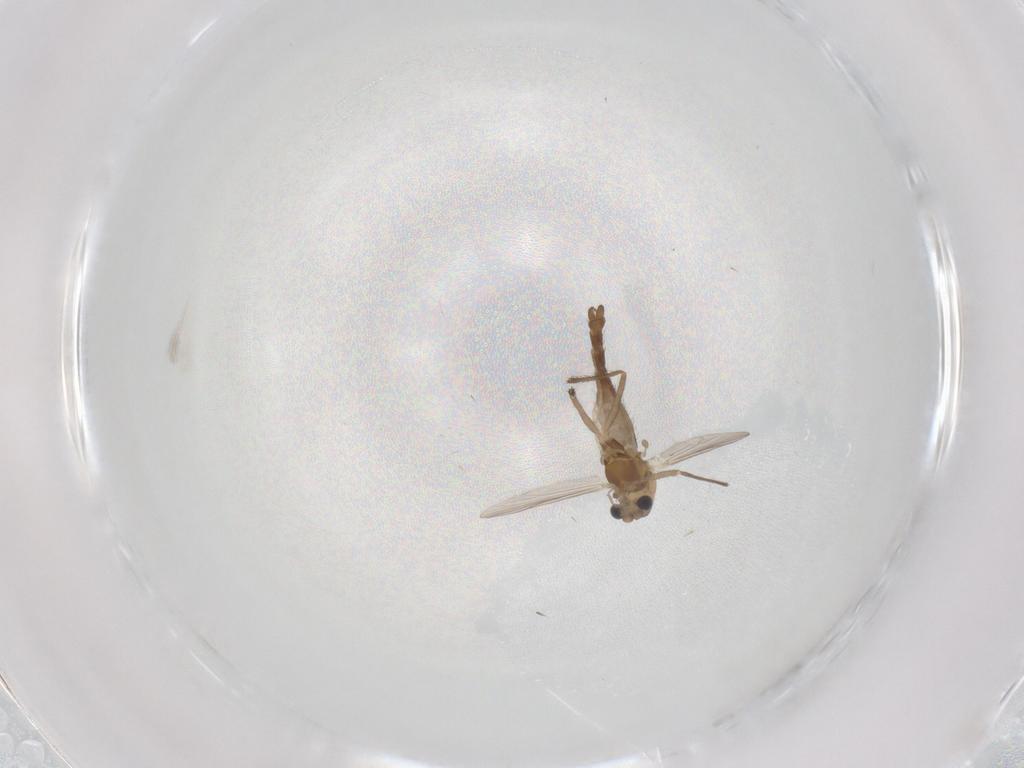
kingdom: Animalia
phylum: Arthropoda
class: Insecta
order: Diptera
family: Chironomidae
